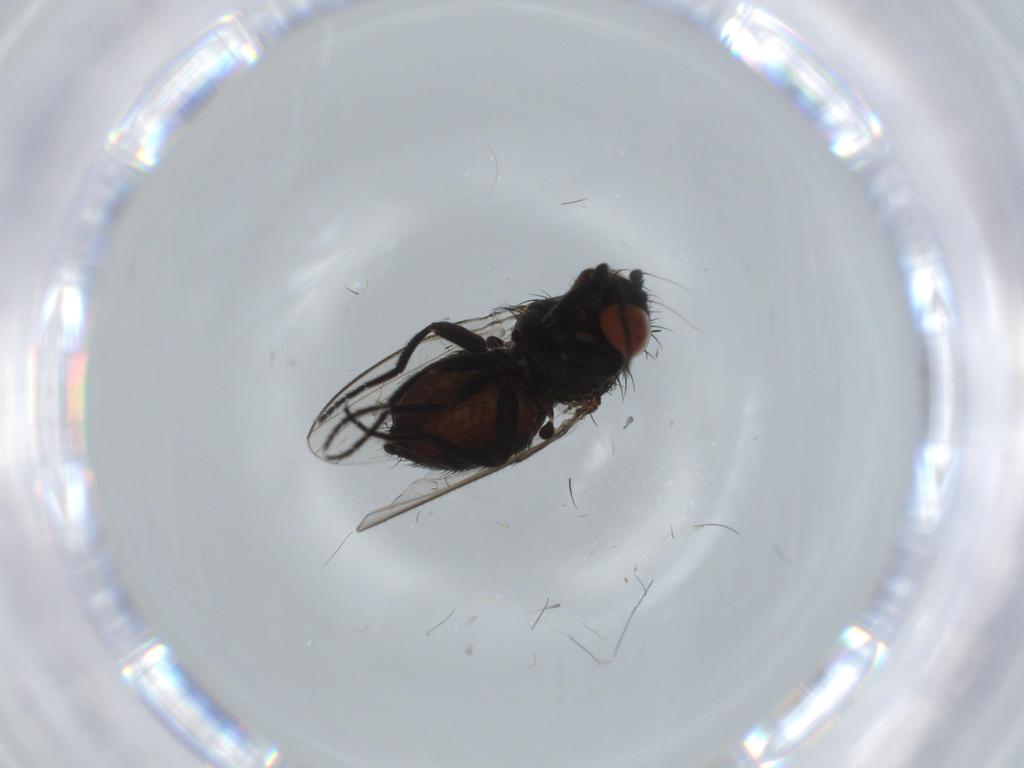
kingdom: Animalia
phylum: Arthropoda
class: Insecta
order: Diptera
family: Milichiidae
